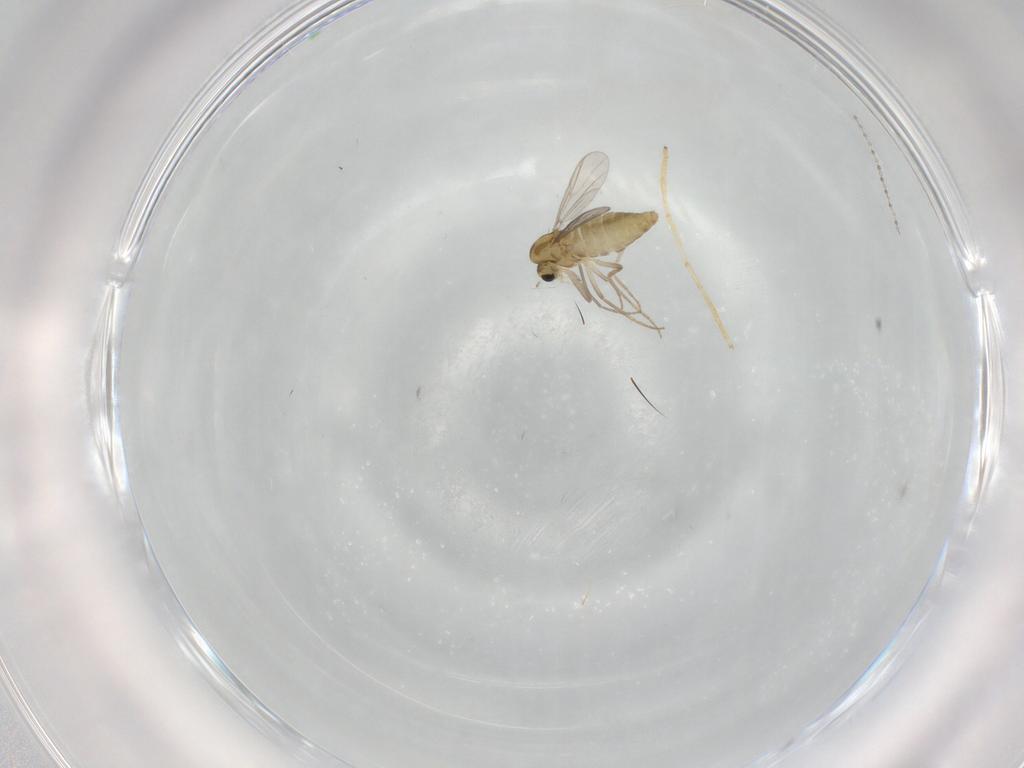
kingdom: Animalia
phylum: Arthropoda
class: Insecta
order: Diptera
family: Chironomidae
